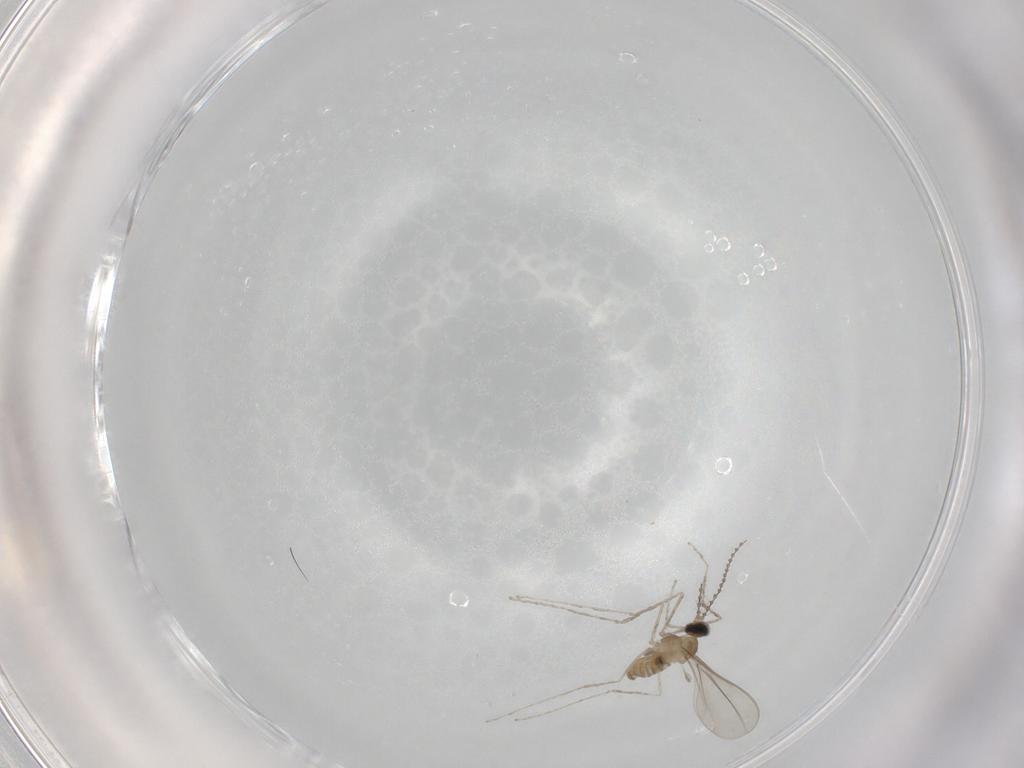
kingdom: Animalia
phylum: Arthropoda
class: Insecta
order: Diptera
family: Cecidomyiidae
